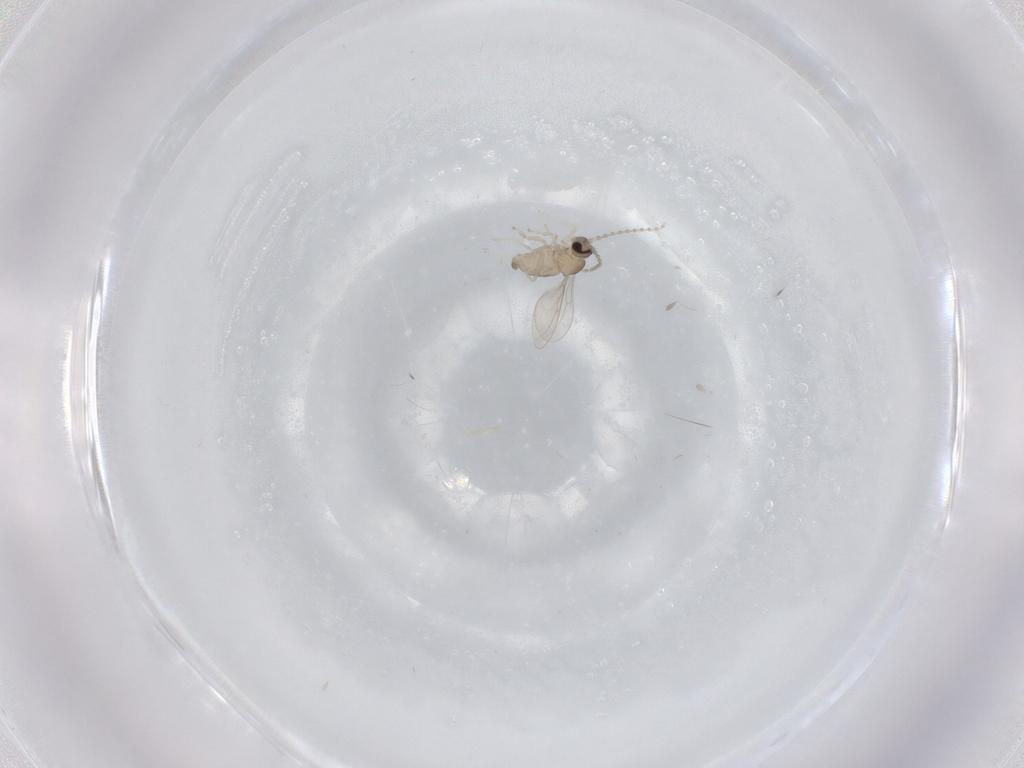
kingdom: Animalia
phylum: Arthropoda
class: Insecta
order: Diptera
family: Cecidomyiidae
